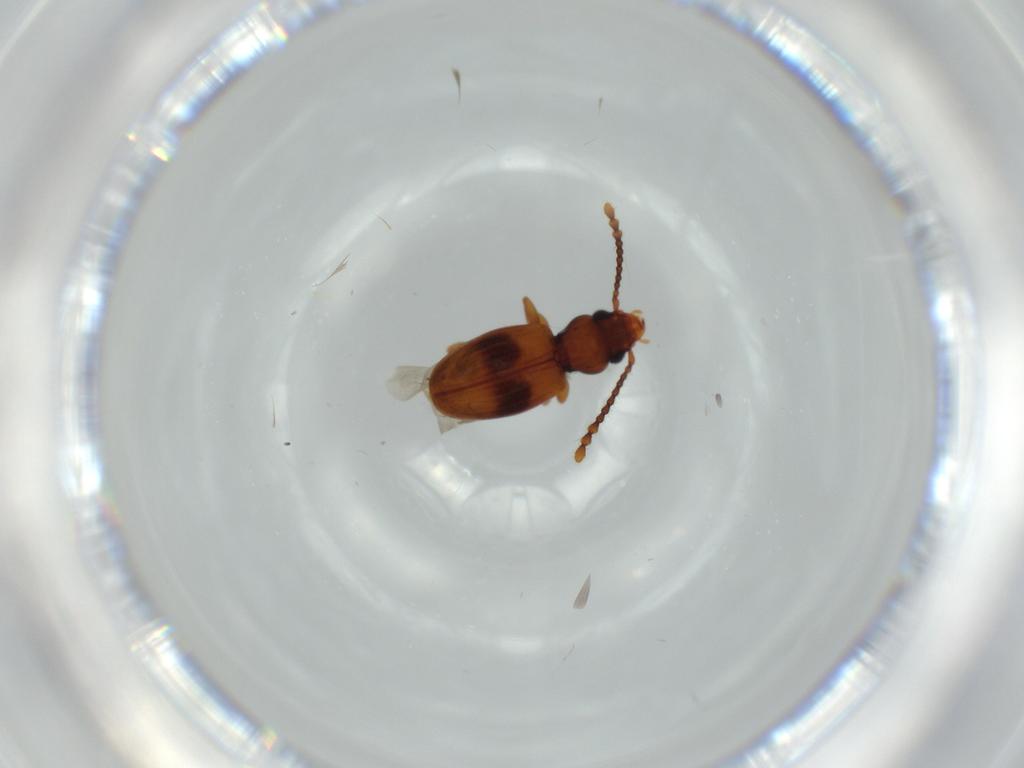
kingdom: Animalia
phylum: Arthropoda
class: Insecta
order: Coleoptera
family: Laemophloeidae
